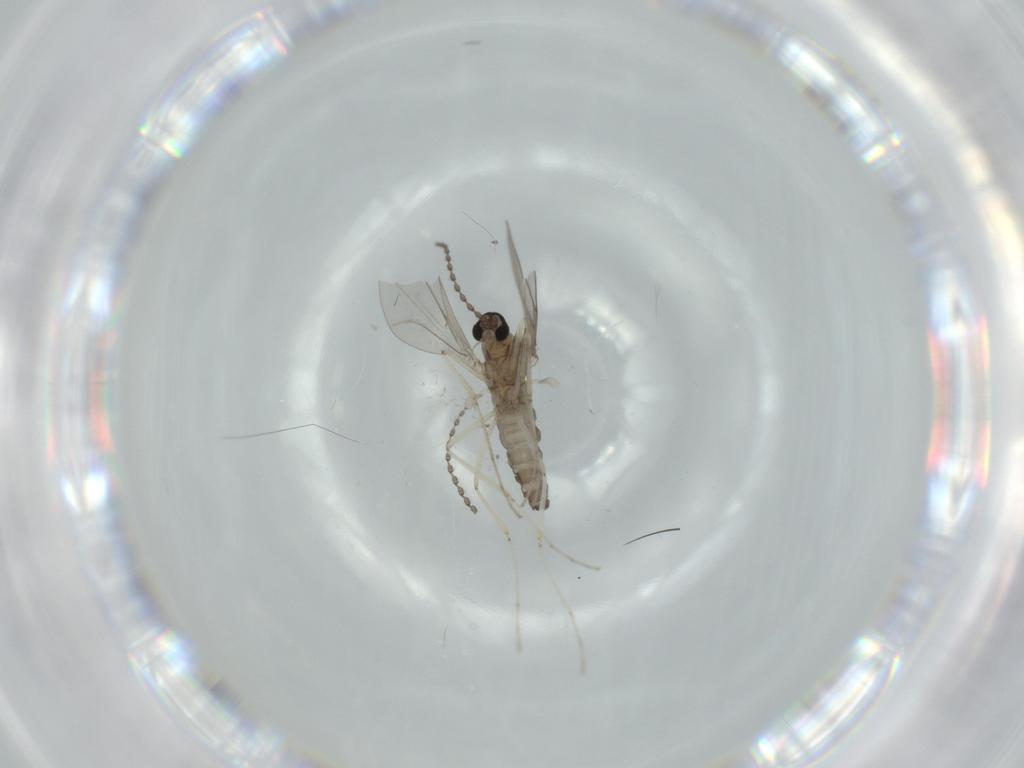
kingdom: Animalia
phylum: Arthropoda
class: Insecta
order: Diptera
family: Cecidomyiidae
